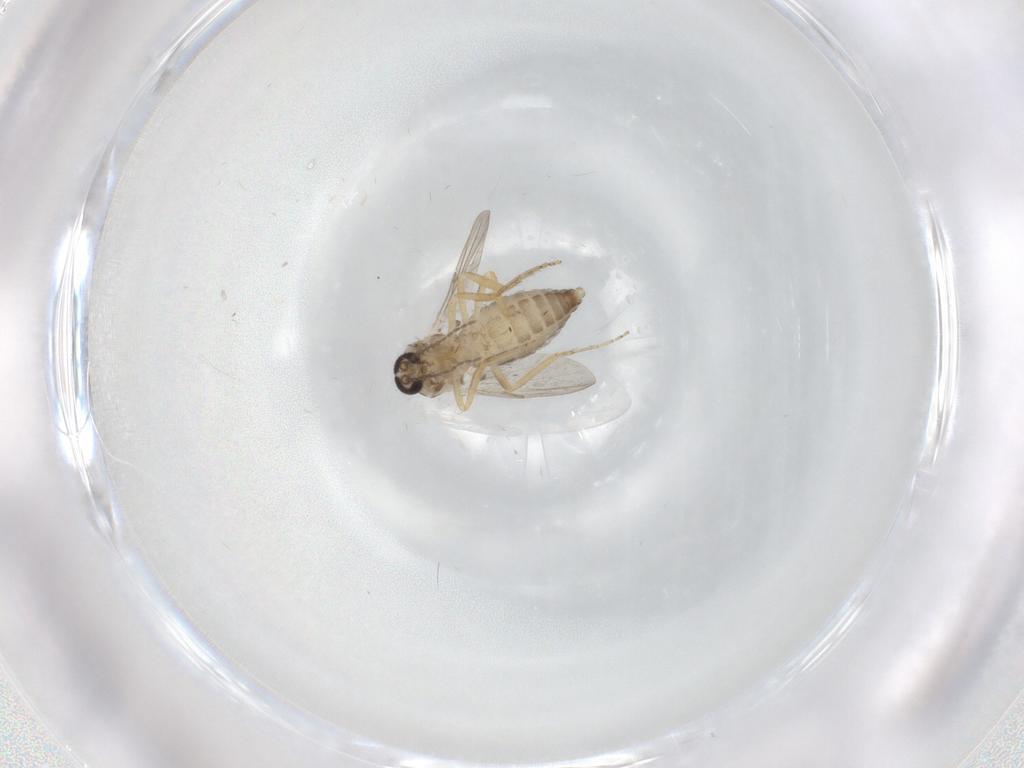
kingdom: Animalia
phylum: Arthropoda
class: Insecta
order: Diptera
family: Ceratopogonidae
